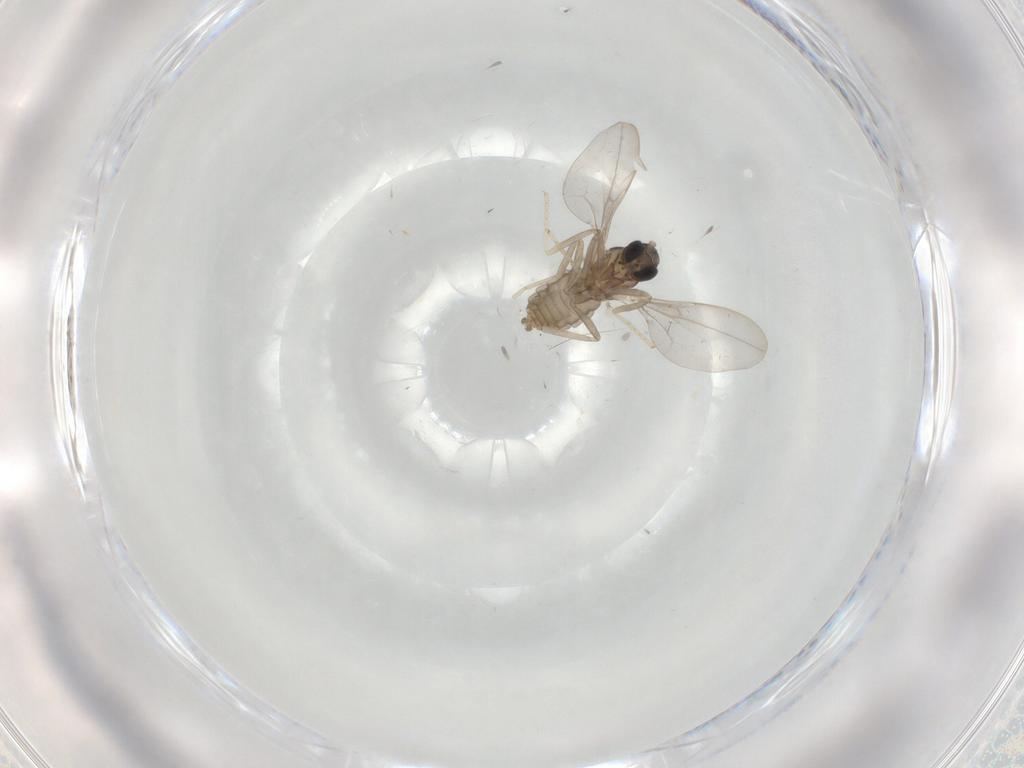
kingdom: Animalia
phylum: Arthropoda
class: Insecta
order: Diptera
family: Cecidomyiidae
